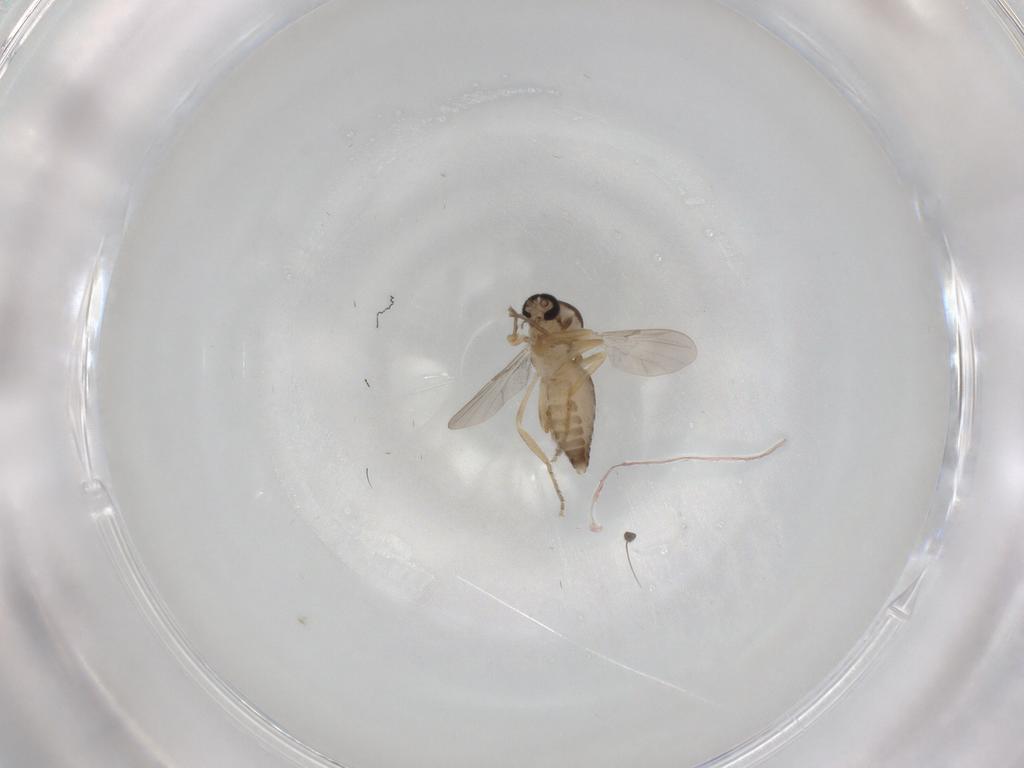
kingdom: Animalia
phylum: Arthropoda
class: Insecta
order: Diptera
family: Ceratopogonidae
